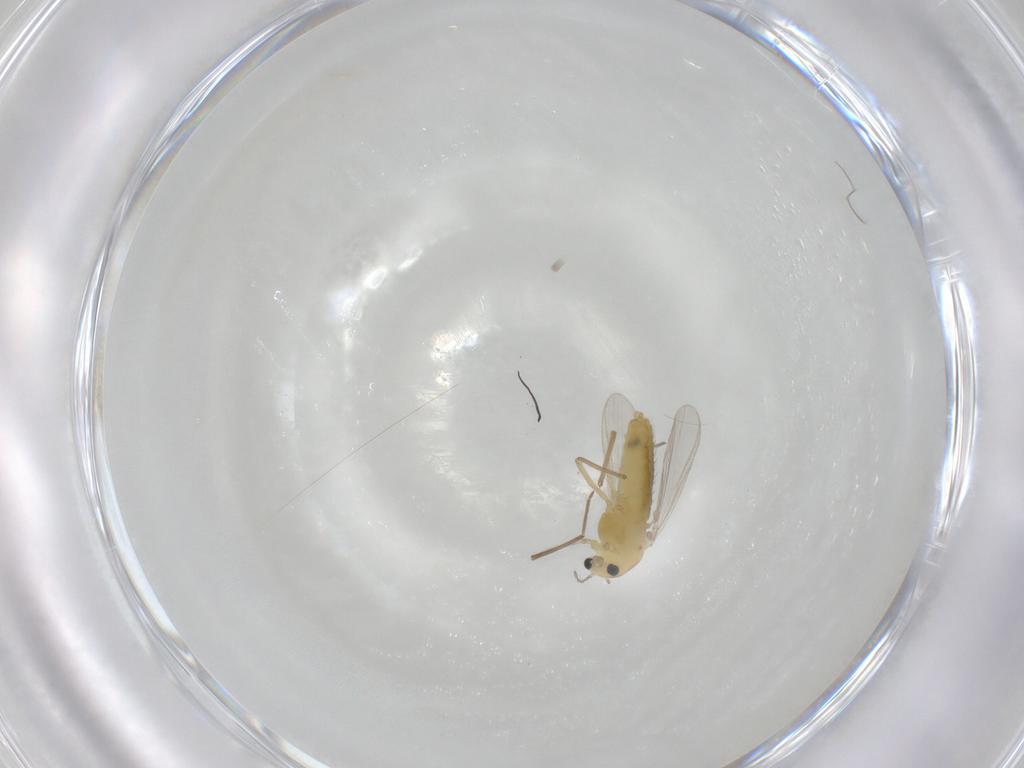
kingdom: Animalia
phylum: Arthropoda
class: Insecta
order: Diptera
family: Chironomidae
